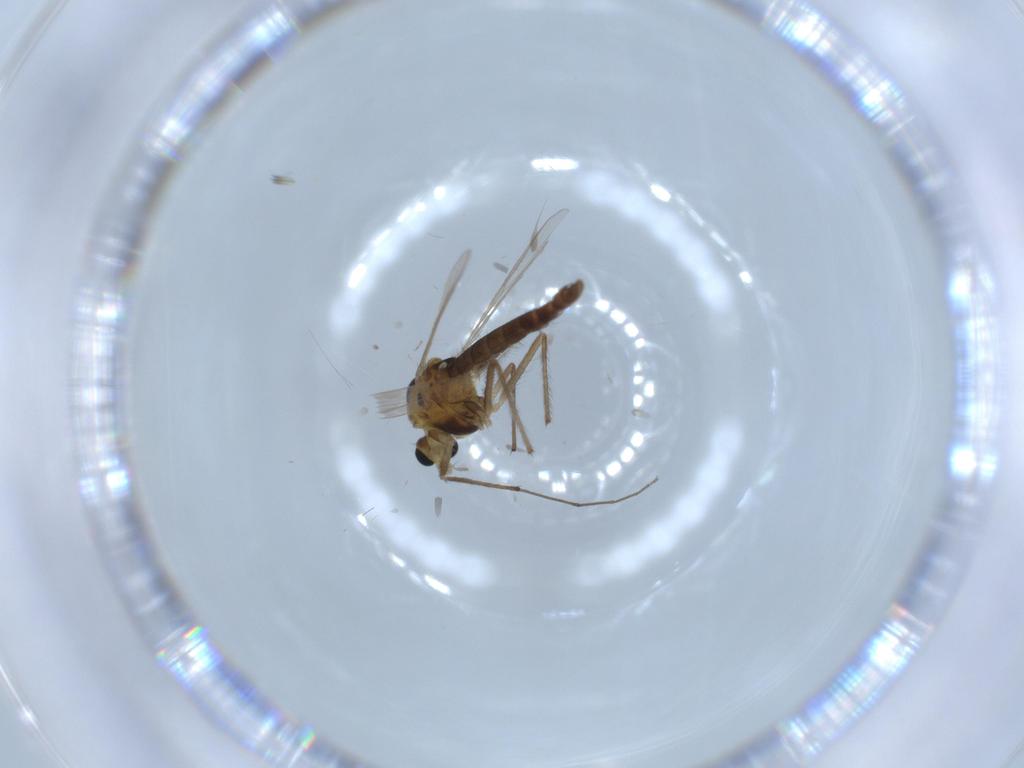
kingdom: Animalia
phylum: Arthropoda
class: Insecta
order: Diptera
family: Chironomidae
